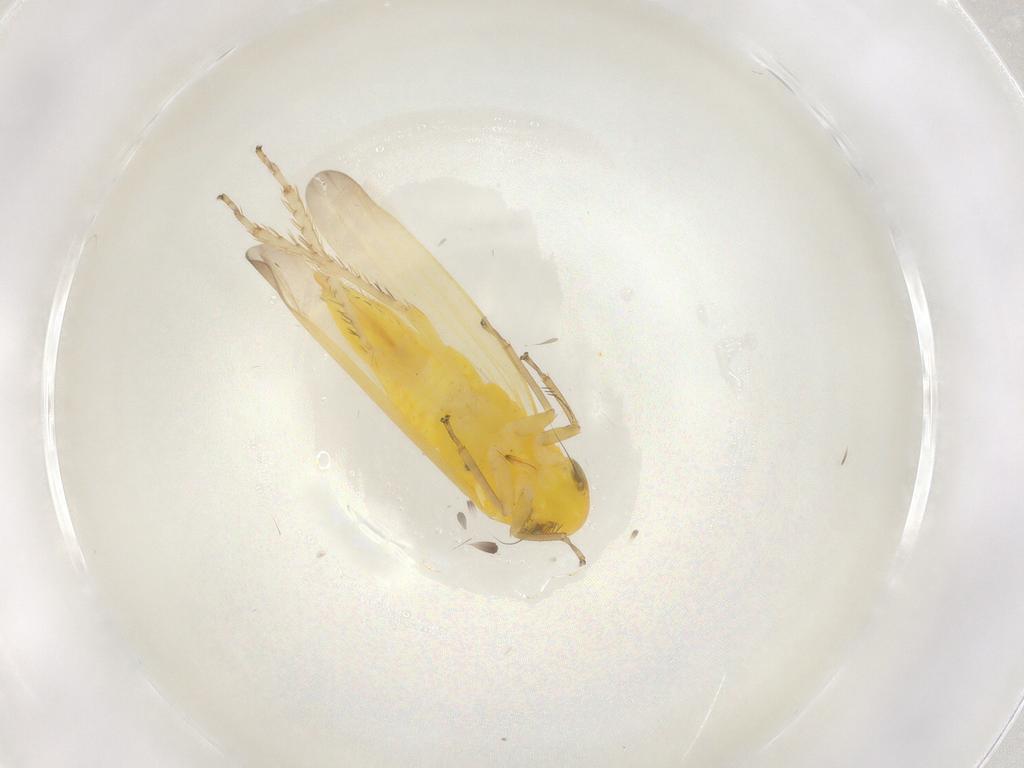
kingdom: Animalia
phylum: Arthropoda
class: Insecta
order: Hemiptera
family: Cicadellidae
